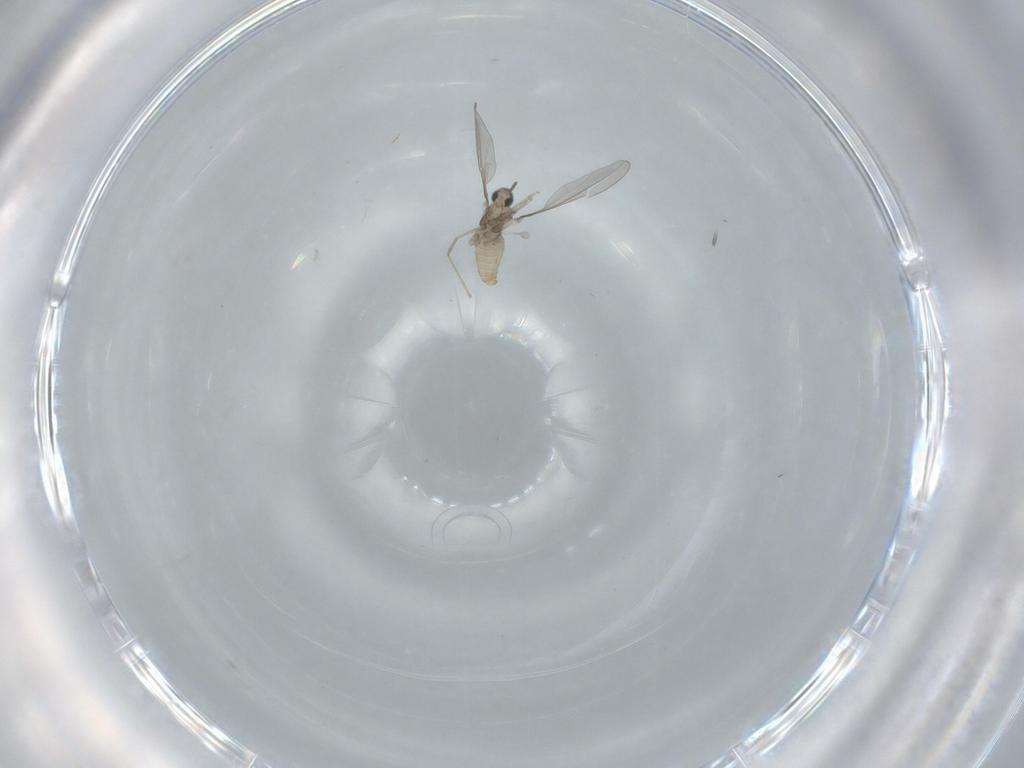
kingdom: Animalia
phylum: Arthropoda
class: Insecta
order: Diptera
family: Cecidomyiidae
